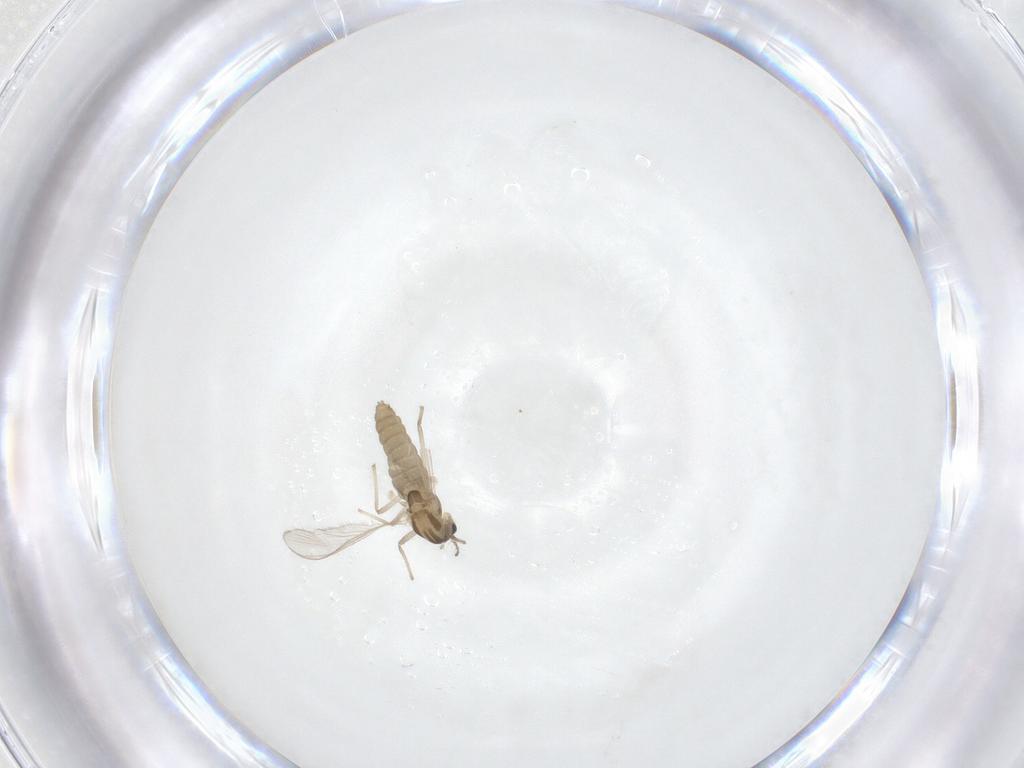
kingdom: Animalia
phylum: Arthropoda
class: Insecta
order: Diptera
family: Chironomidae
